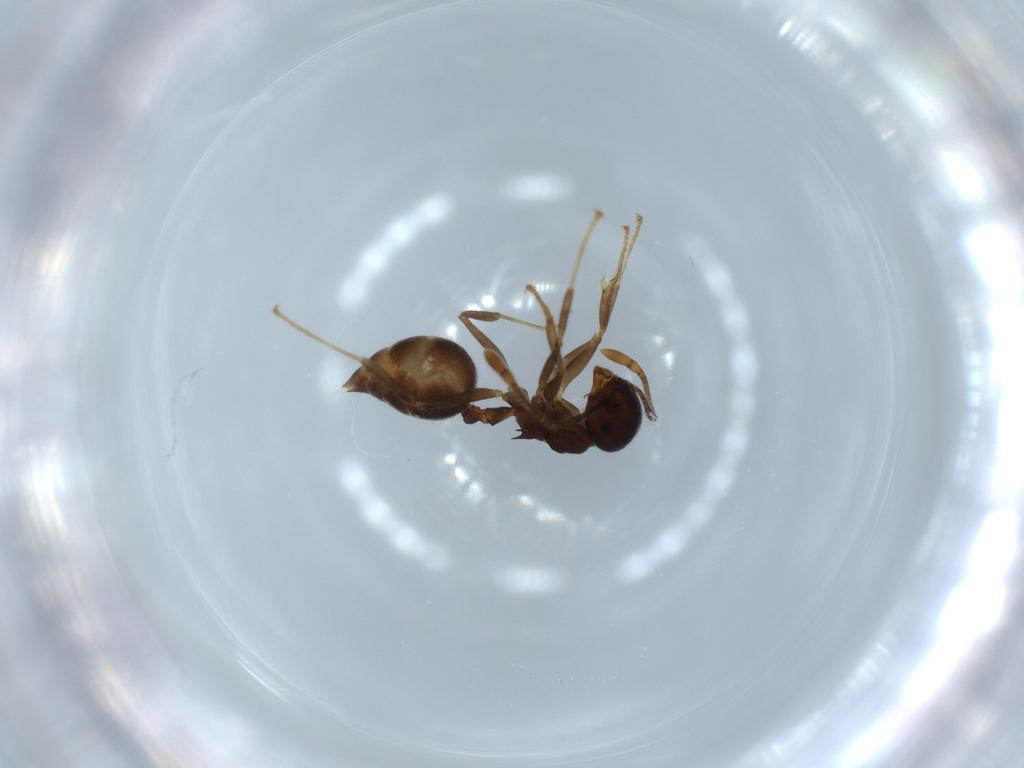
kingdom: Animalia
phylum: Arthropoda
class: Insecta
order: Hymenoptera
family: Formicidae
